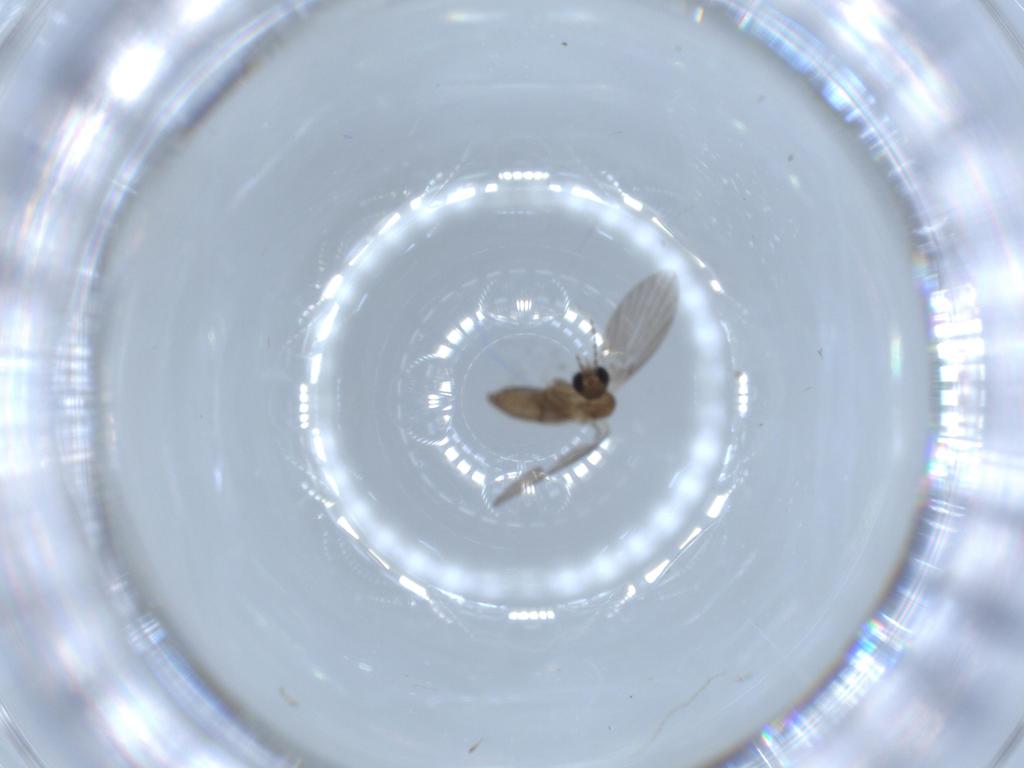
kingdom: Animalia
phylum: Arthropoda
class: Insecta
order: Diptera
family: Psychodidae
